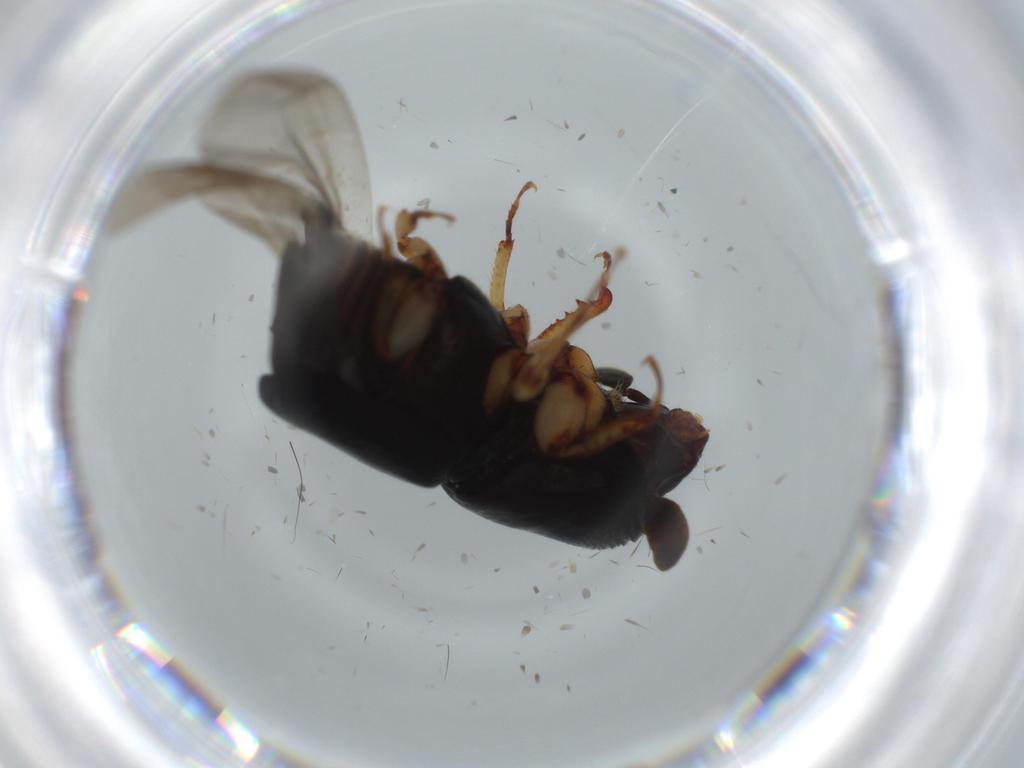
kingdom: Animalia
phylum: Arthropoda
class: Insecta
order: Coleoptera
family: Curculionidae
